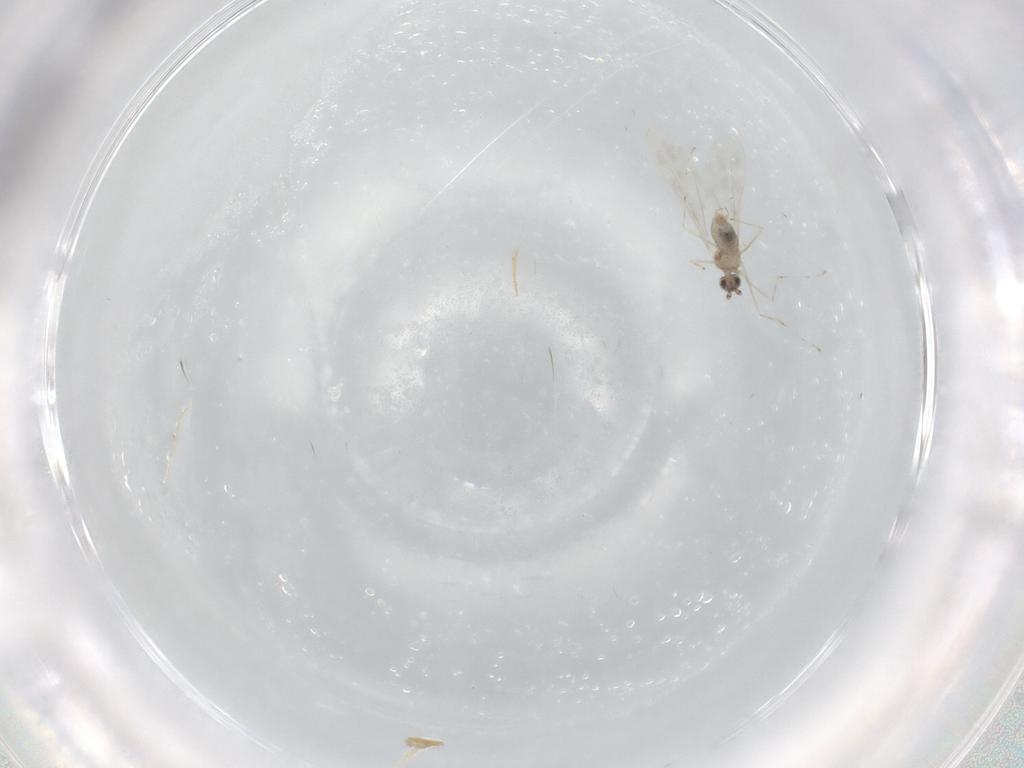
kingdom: Animalia
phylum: Arthropoda
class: Insecta
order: Diptera
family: Cecidomyiidae
